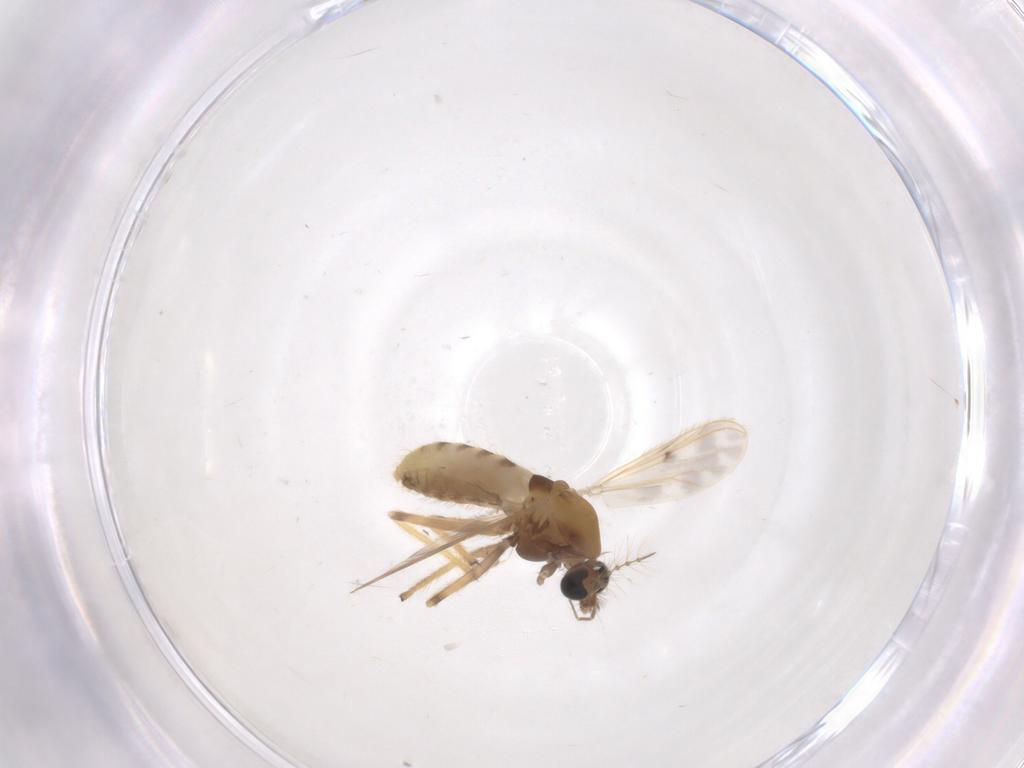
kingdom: Animalia
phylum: Arthropoda
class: Insecta
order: Diptera
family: Chironomidae
